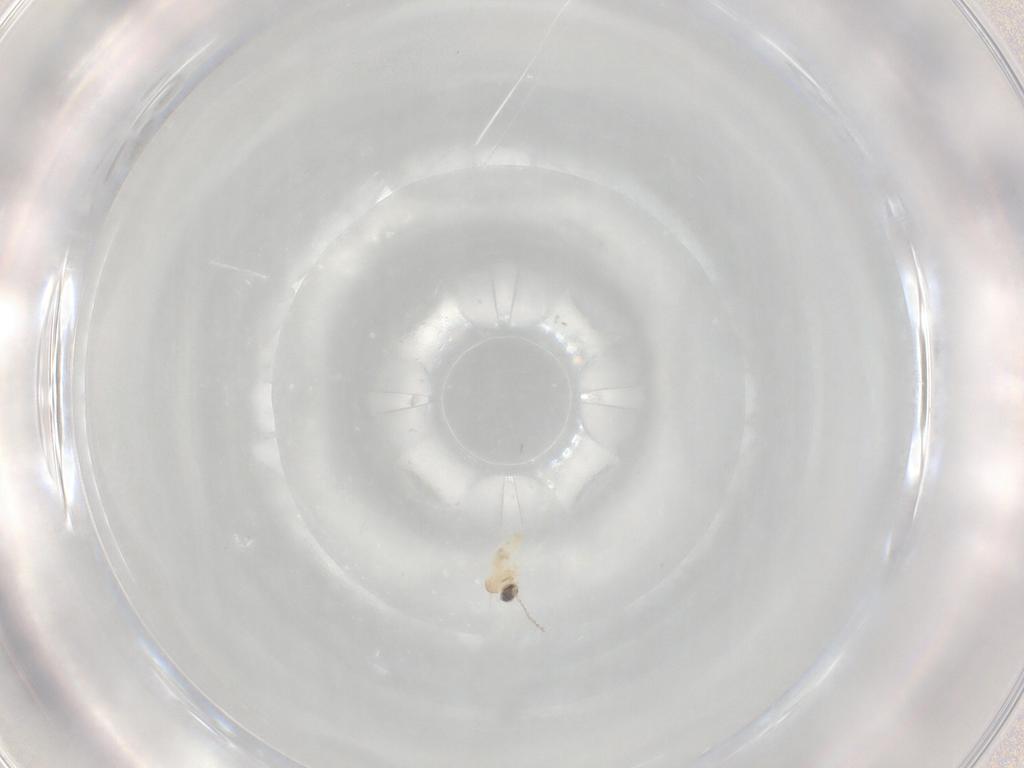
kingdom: Animalia
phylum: Arthropoda
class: Insecta
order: Diptera
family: Cecidomyiidae
